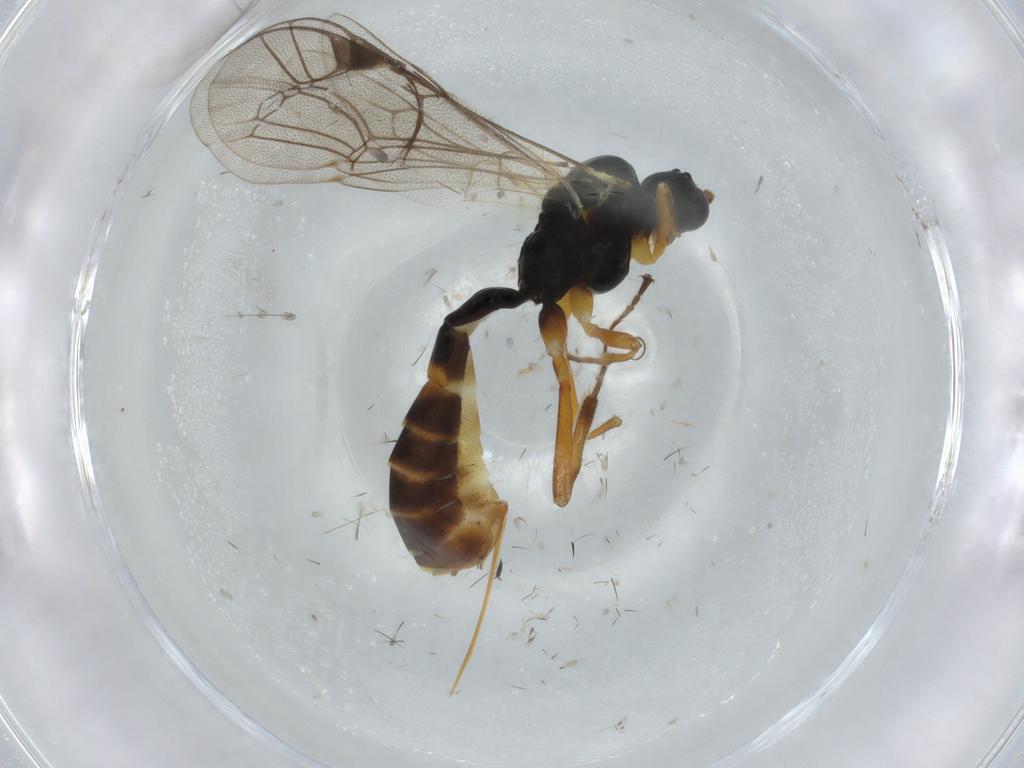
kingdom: Animalia
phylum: Arthropoda
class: Insecta
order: Hymenoptera
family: Ichneumonidae
